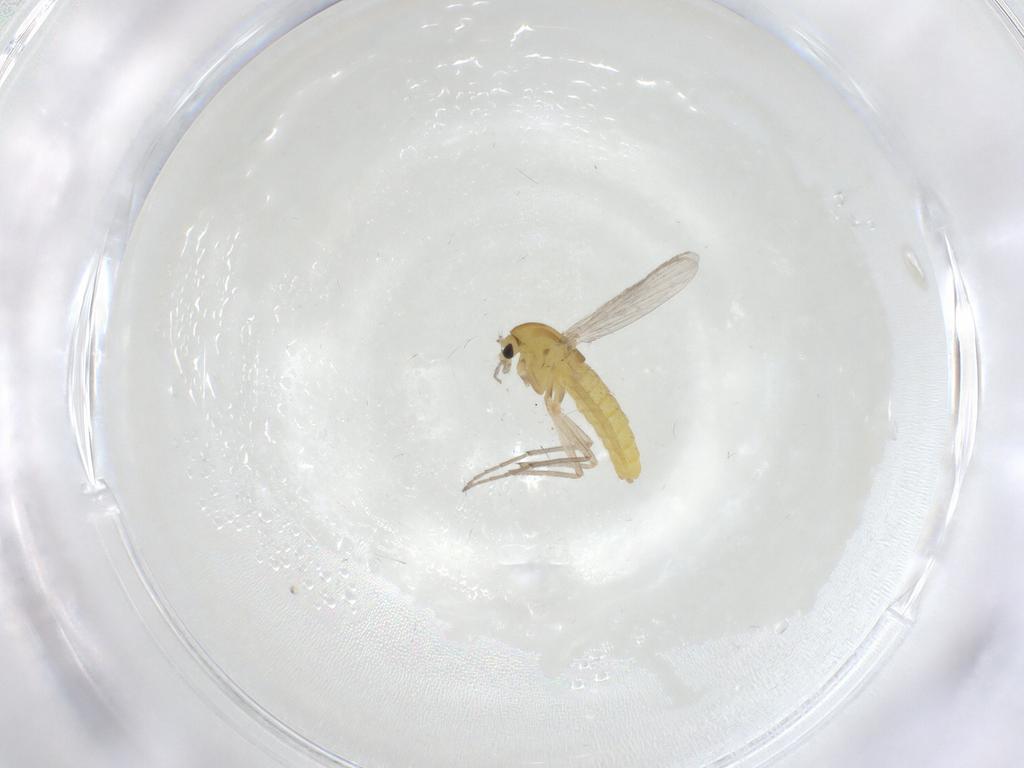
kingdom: Animalia
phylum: Arthropoda
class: Insecta
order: Diptera
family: Chironomidae
